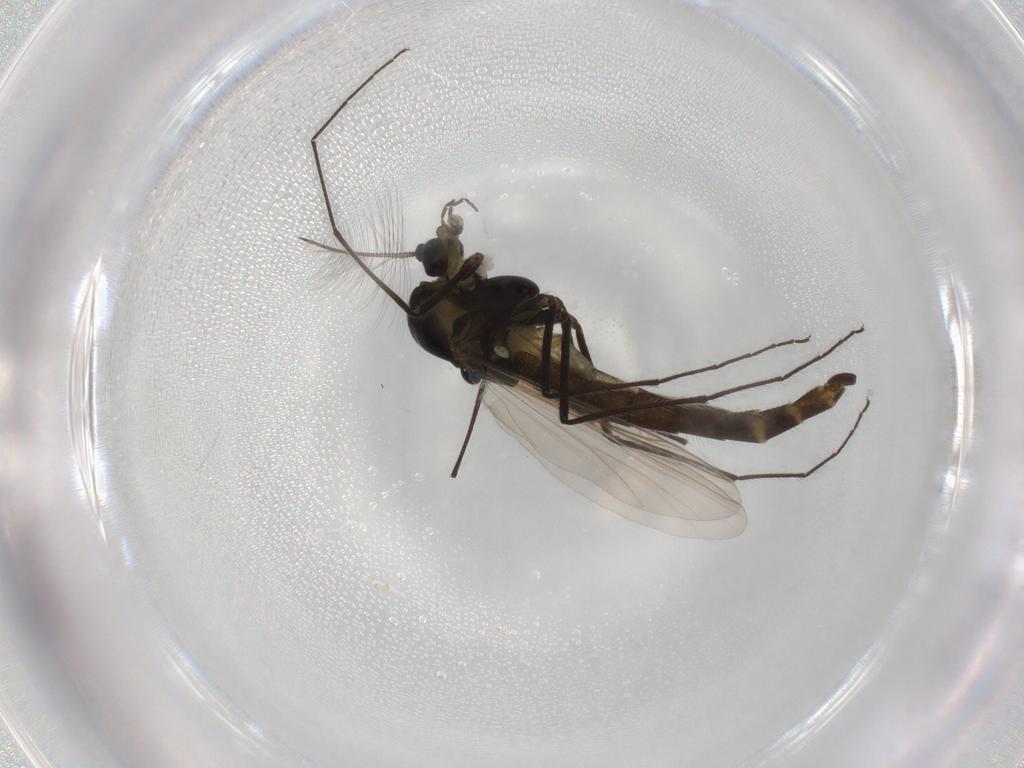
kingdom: Animalia
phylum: Arthropoda
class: Insecta
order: Diptera
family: Chironomidae
